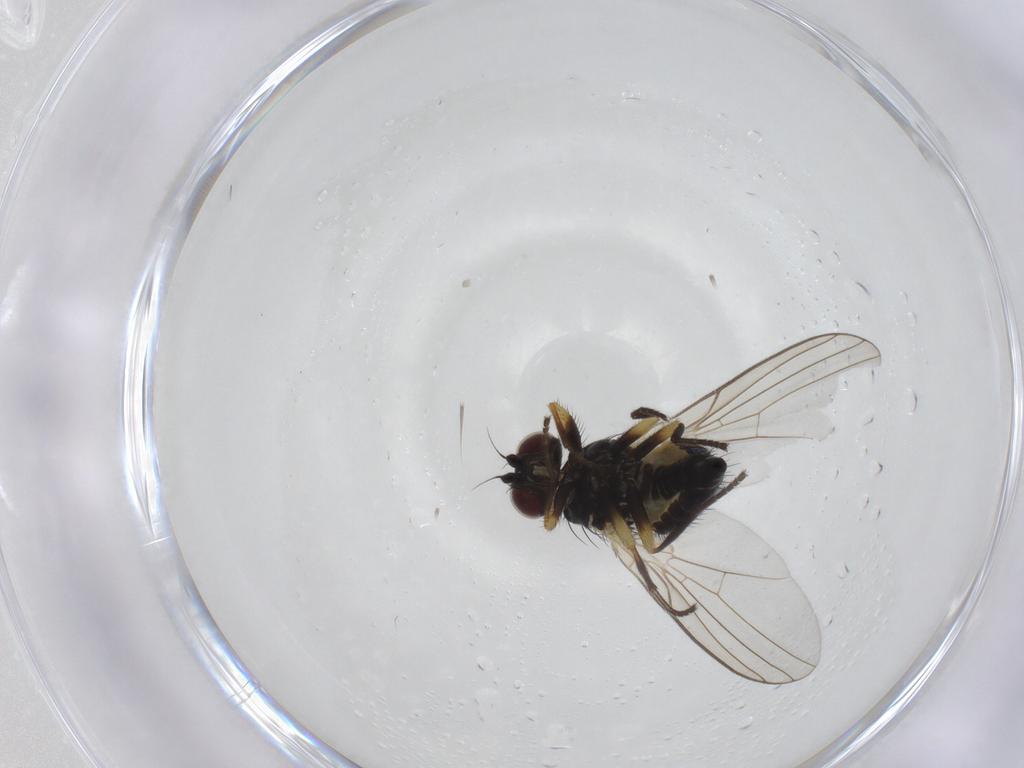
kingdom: Animalia
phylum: Arthropoda
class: Insecta
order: Diptera
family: Agromyzidae
